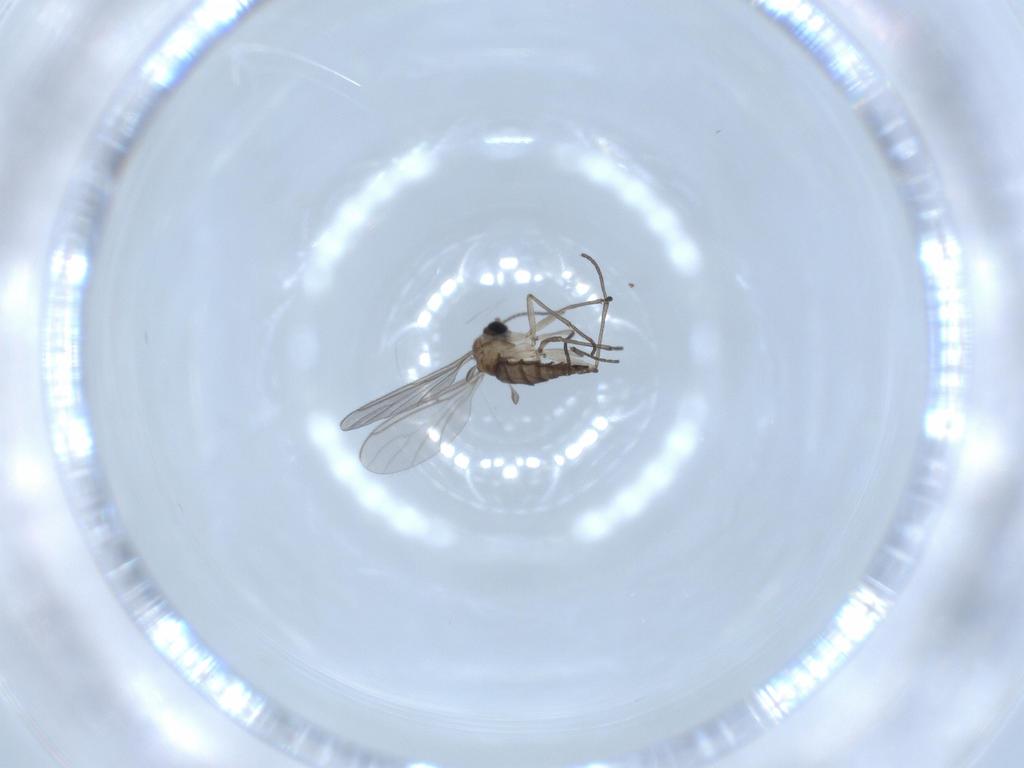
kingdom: Animalia
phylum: Arthropoda
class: Insecta
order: Diptera
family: Sciaridae
